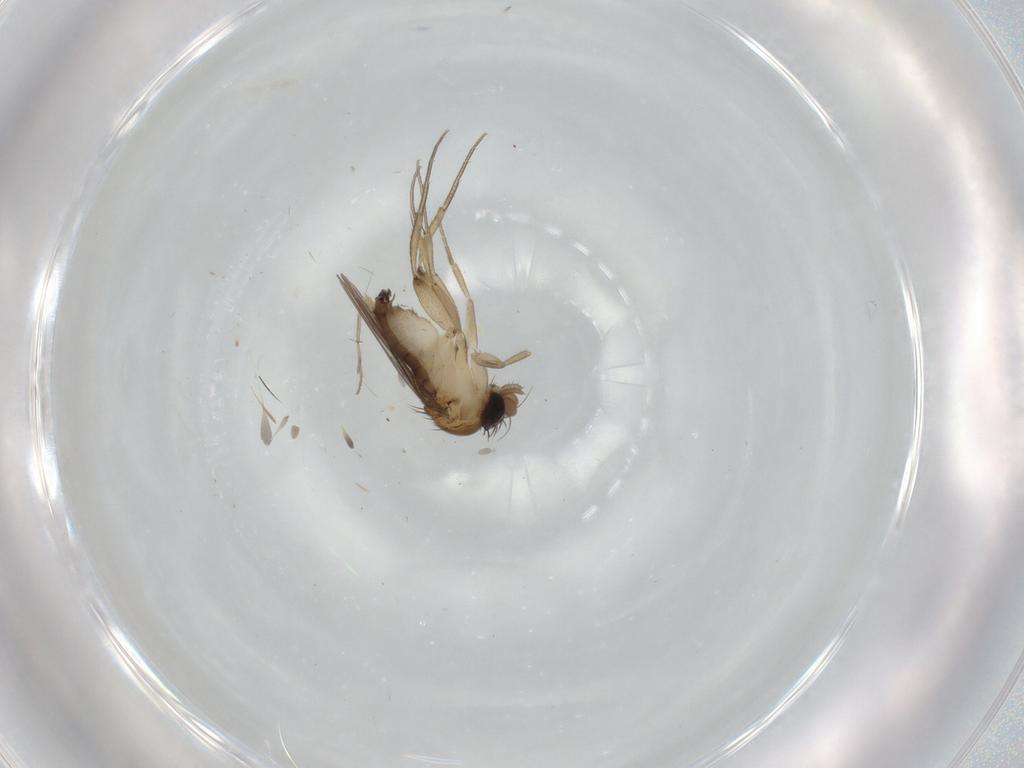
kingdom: Animalia
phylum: Arthropoda
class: Insecta
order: Diptera
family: Phoridae
